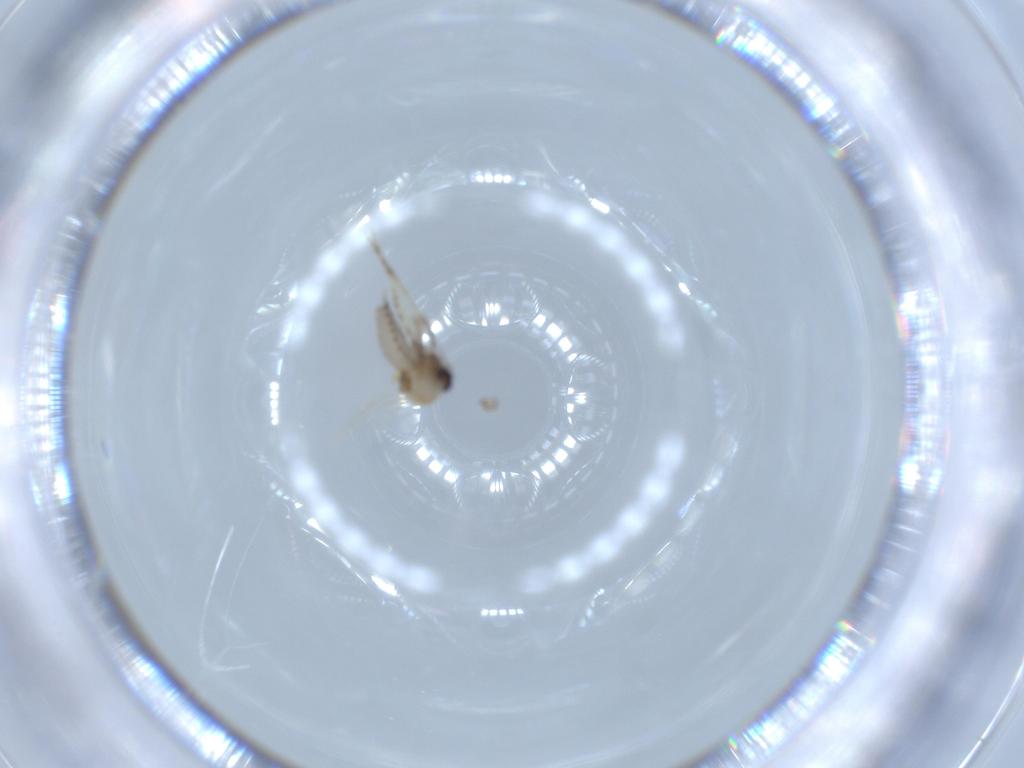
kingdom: Animalia
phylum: Arthropoda
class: Insecta
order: Diptera
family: Ceratopogonidae
